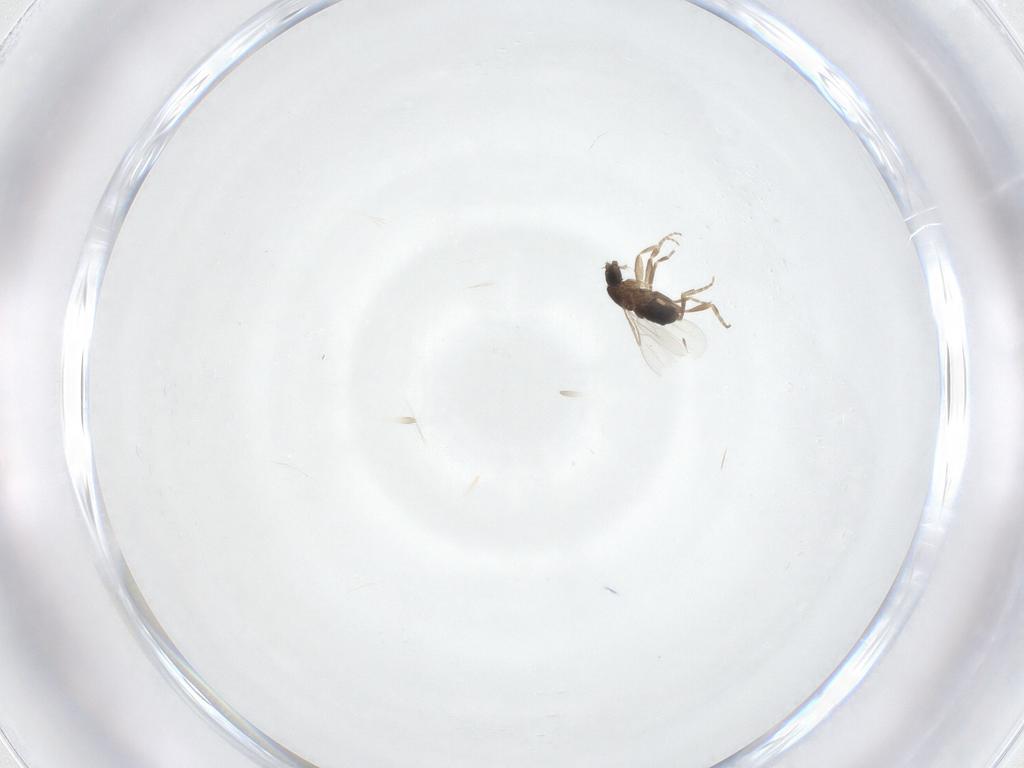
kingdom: Animalia
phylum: Arthropoda
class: Insecta
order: Diptera
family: Phoridae
